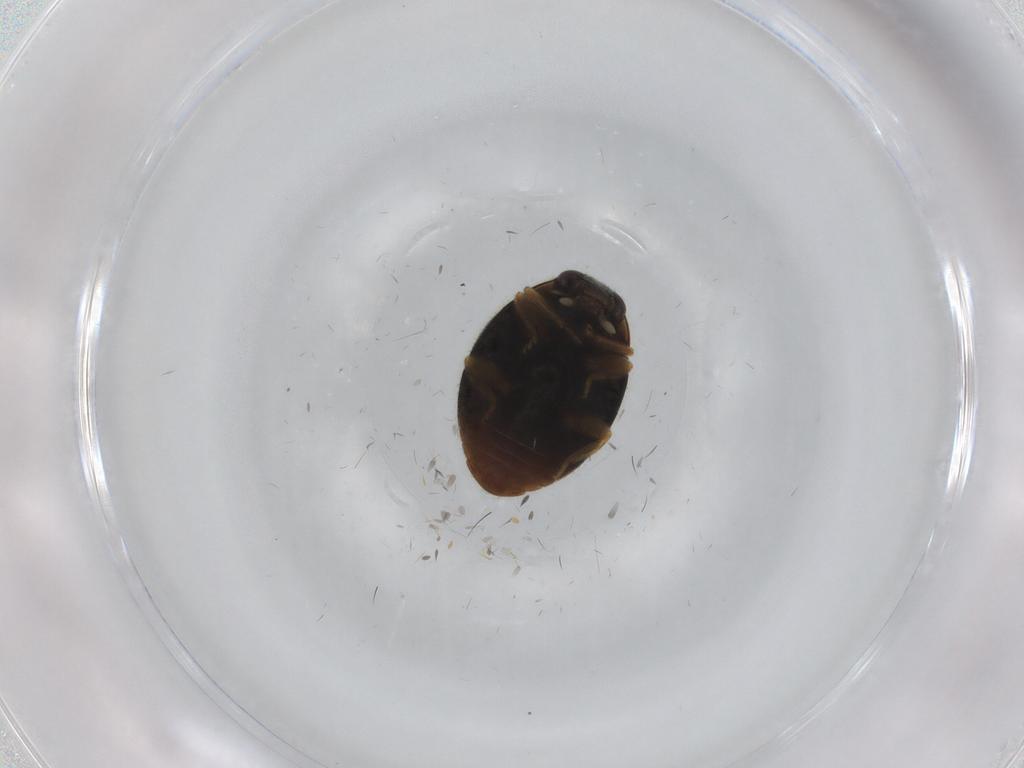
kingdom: Animalia
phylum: Arthropoda
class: Insecta
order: Coleoptera
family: Coccinellidae
